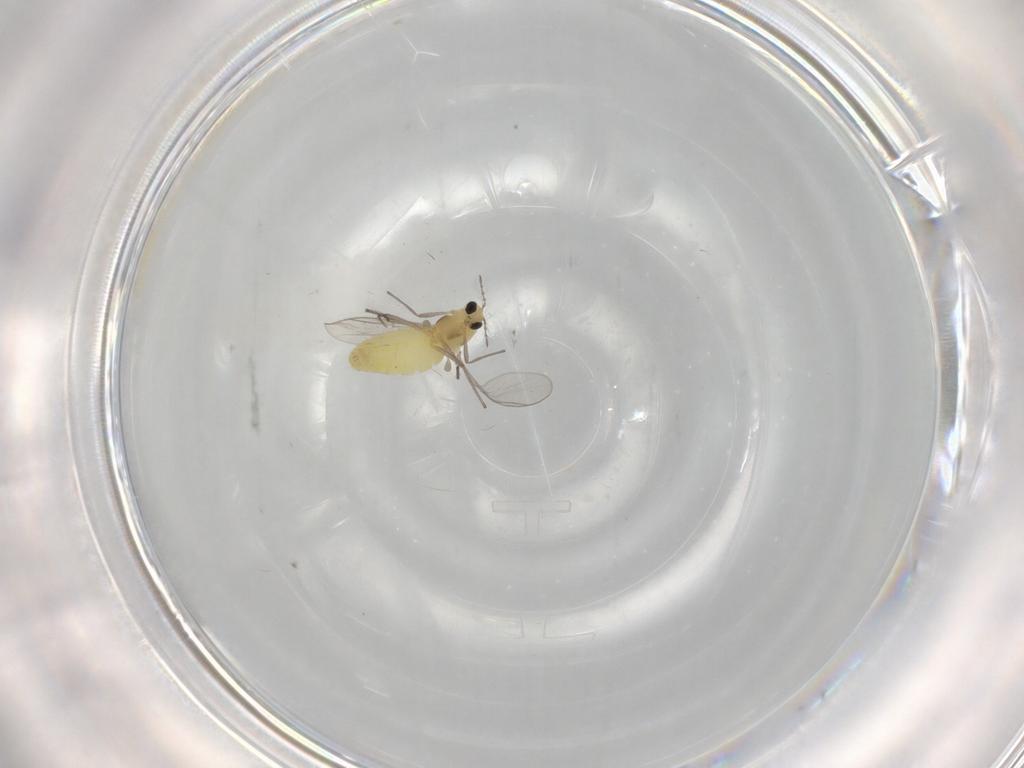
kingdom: Animalia
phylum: Arthropoda
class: Insecta
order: Diptera
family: Chironomidae
